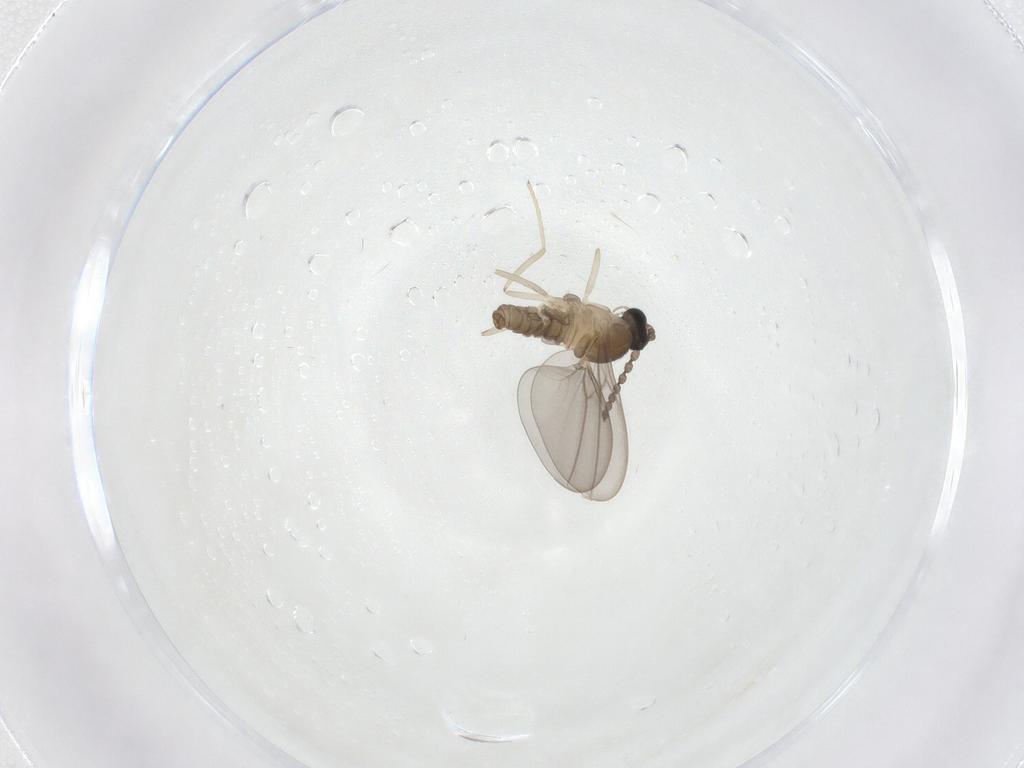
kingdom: Animalia
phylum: Arthropoda
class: Insecta
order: Diptera
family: Cecidomyiidae
